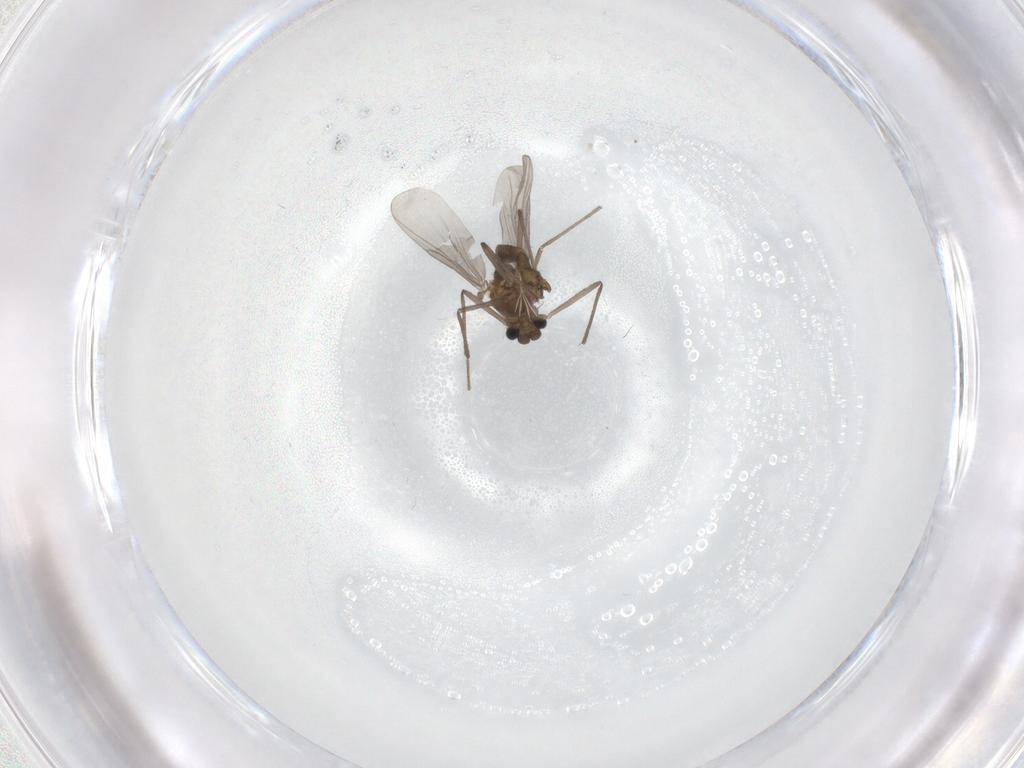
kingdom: Animalia
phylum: Arthropoda
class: Insecta
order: Diptera
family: Chironomidae
